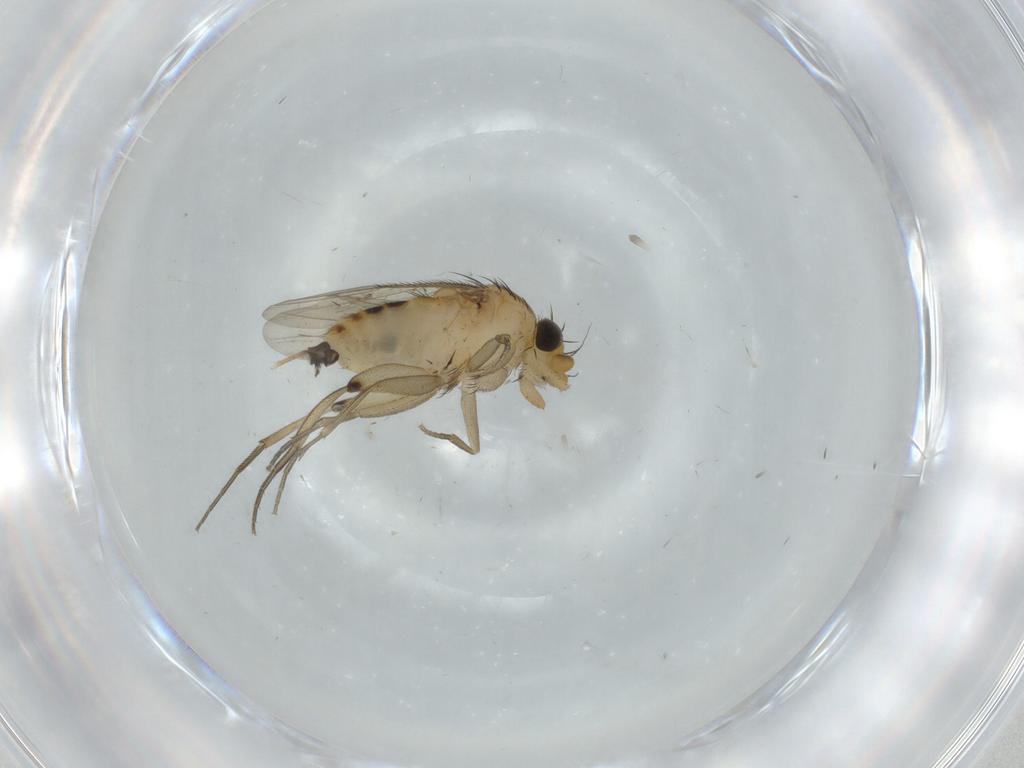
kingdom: Animalia
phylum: Arthropoda
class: Insecta
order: Diptera
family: Phoridae
